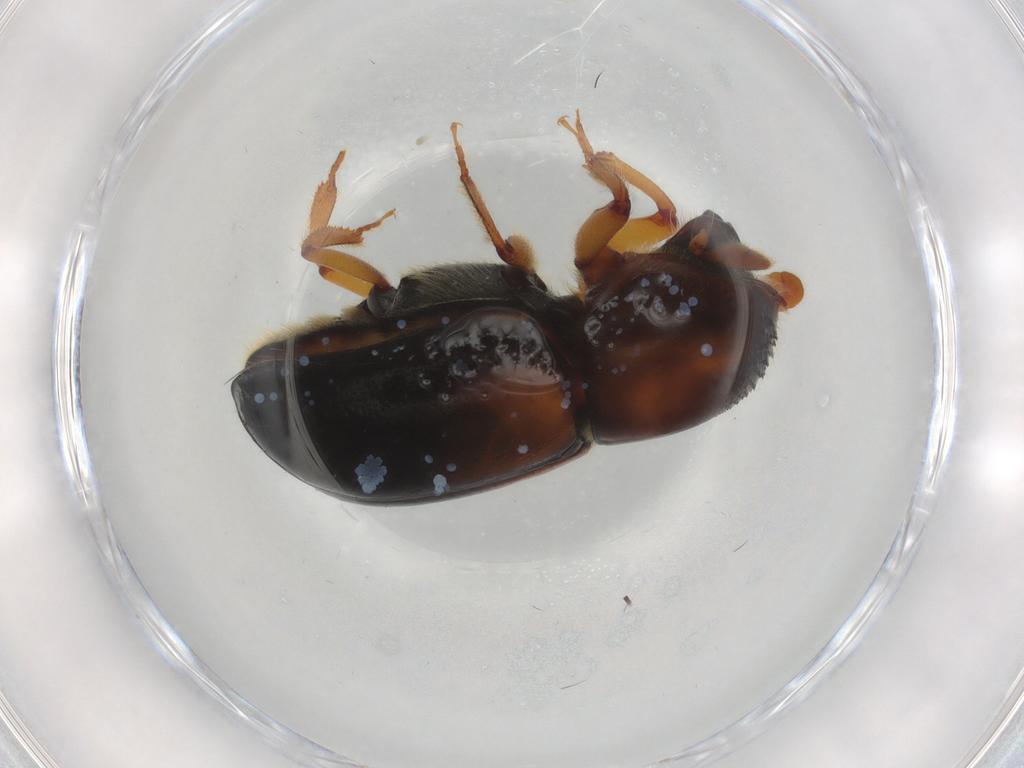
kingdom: Animalia
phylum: Arthropoda
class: Insecta
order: Coleoptera
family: Curculionidae
